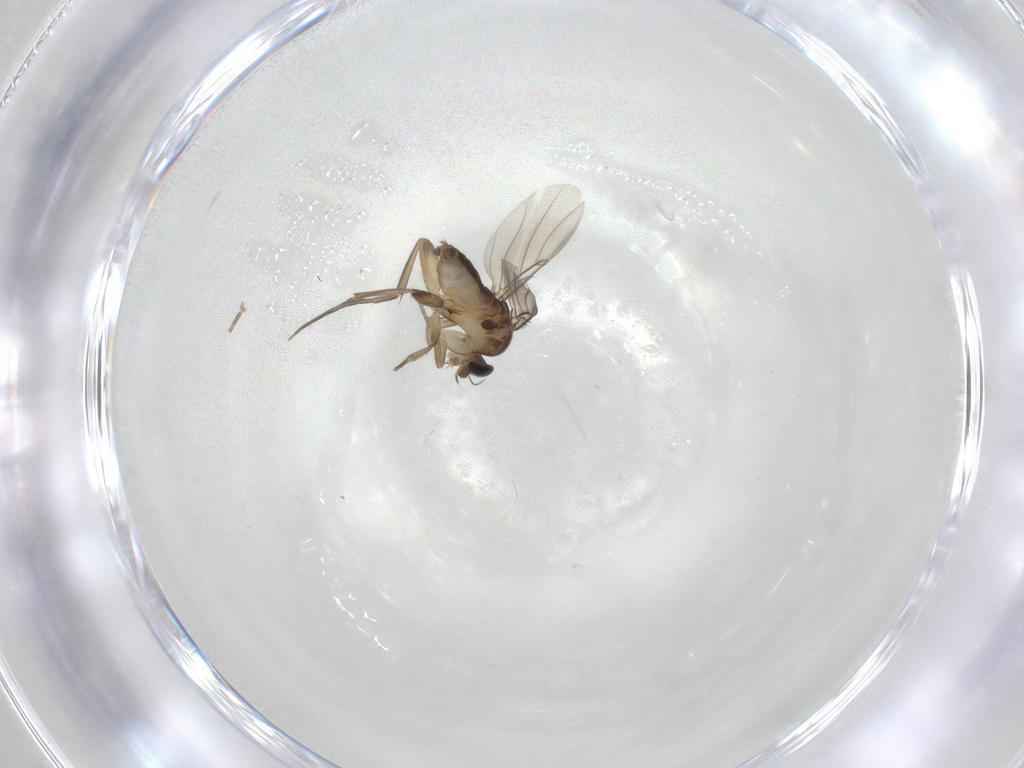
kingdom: Animalia
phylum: Arthropoda
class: Insecta
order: Diptera
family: Phoridae
